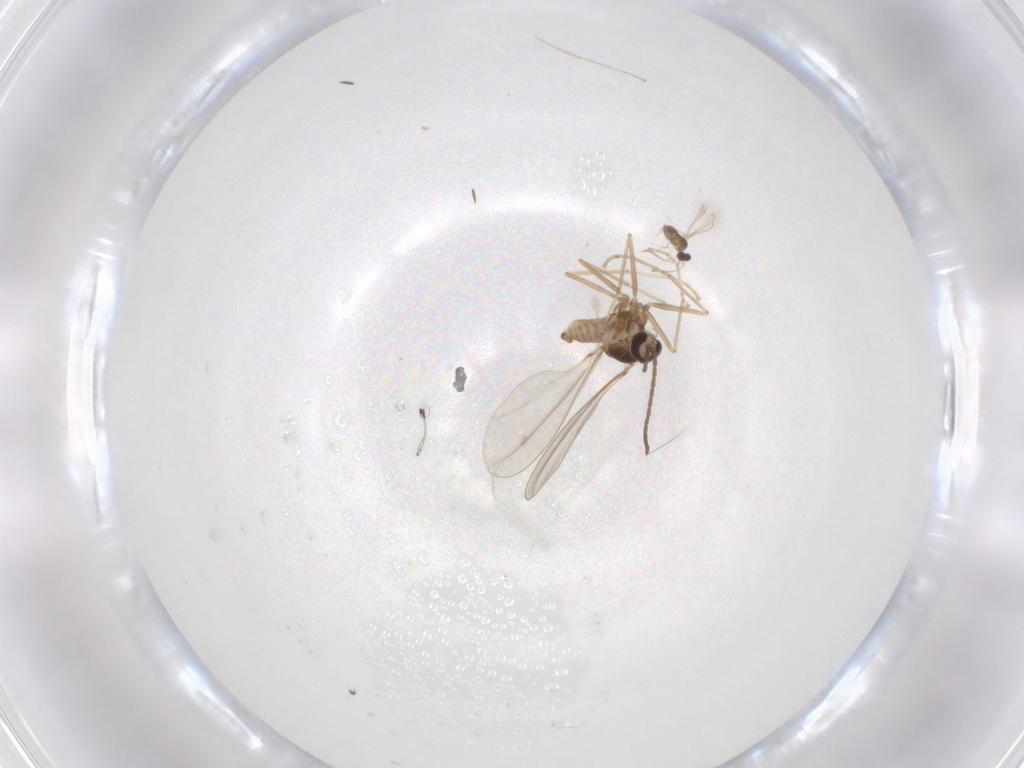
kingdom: Animalia
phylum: Arthropoda
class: Insecta
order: Diptera
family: Cecidomyiidae
